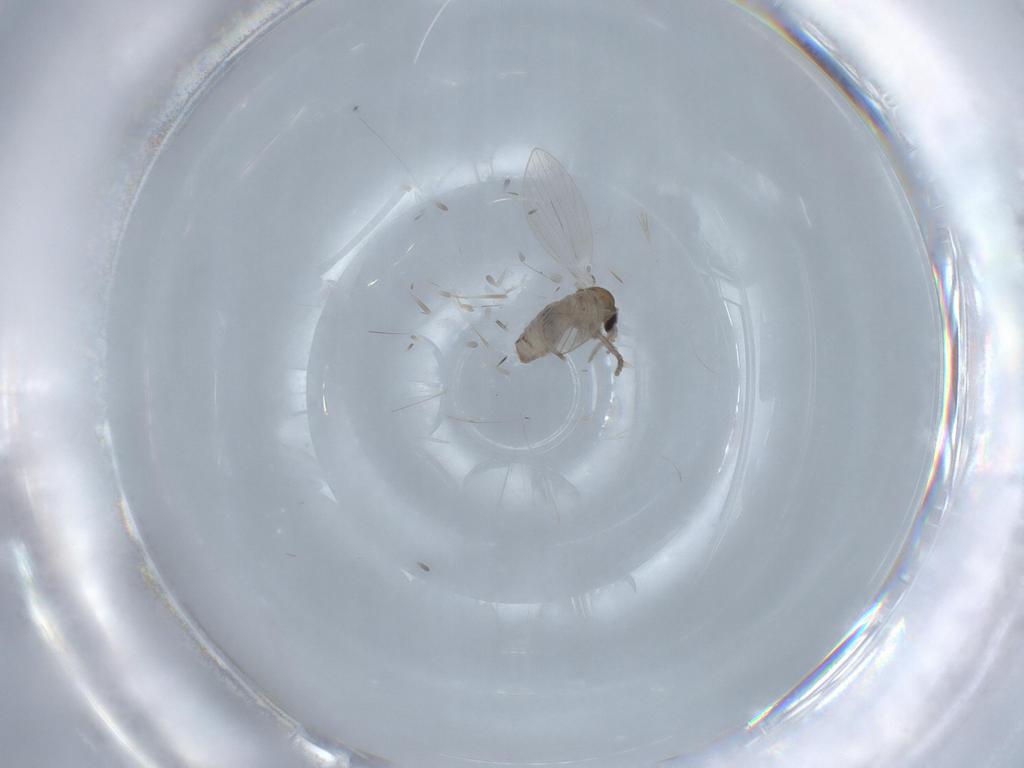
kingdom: Animalia
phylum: Arthropoda
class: Insecta
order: Diptera
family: Psychodidae
